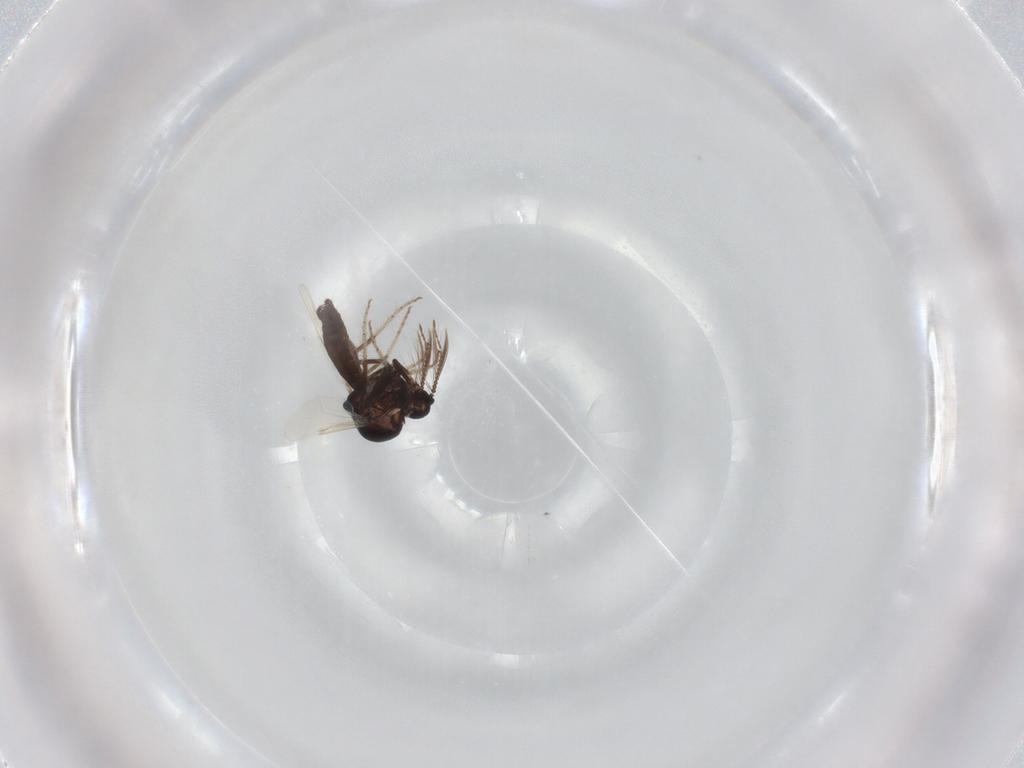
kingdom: Animalia
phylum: Arthropoda
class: Insecta
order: Diptera
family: Ceratopogonidae
